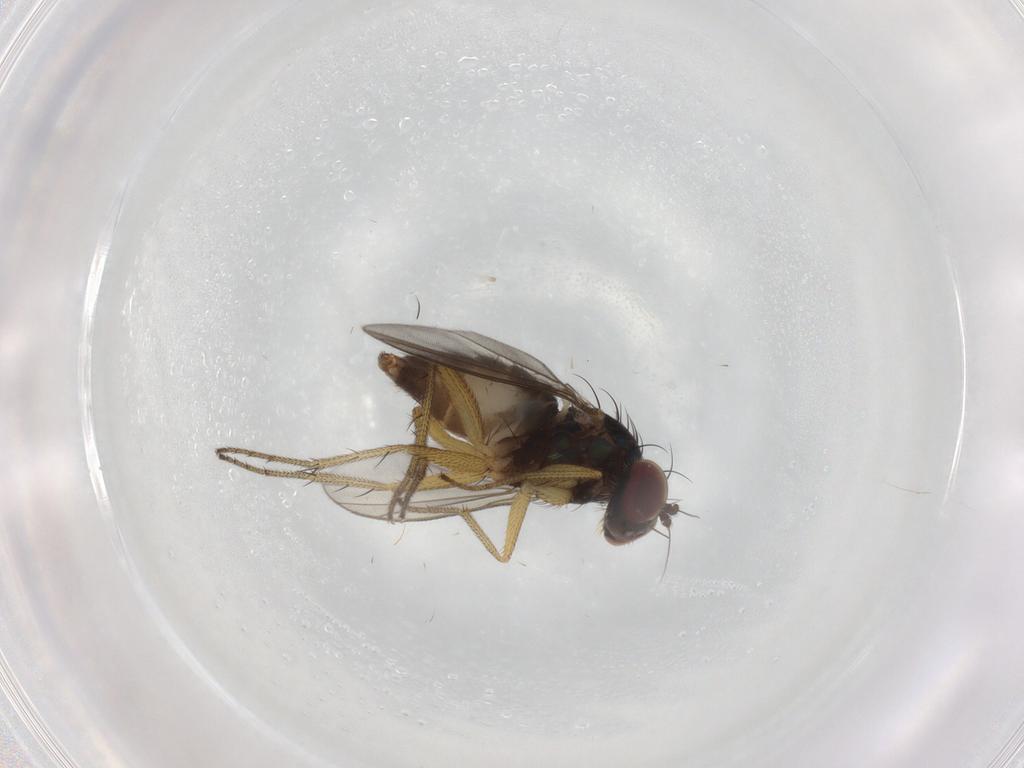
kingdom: Animalia
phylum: Arthropoda
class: Insecta
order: Diptera
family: Dolichopodidae
